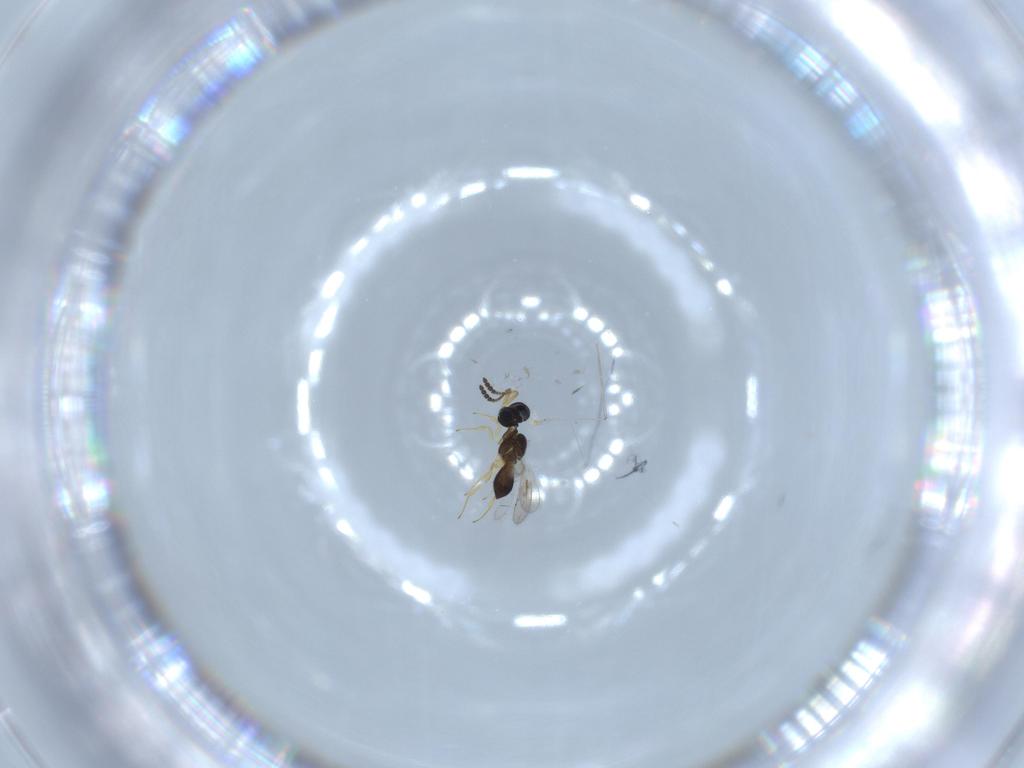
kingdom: Animalia
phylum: Arthropoda
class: Insecta
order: Hymenoptera
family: Scelionidae
